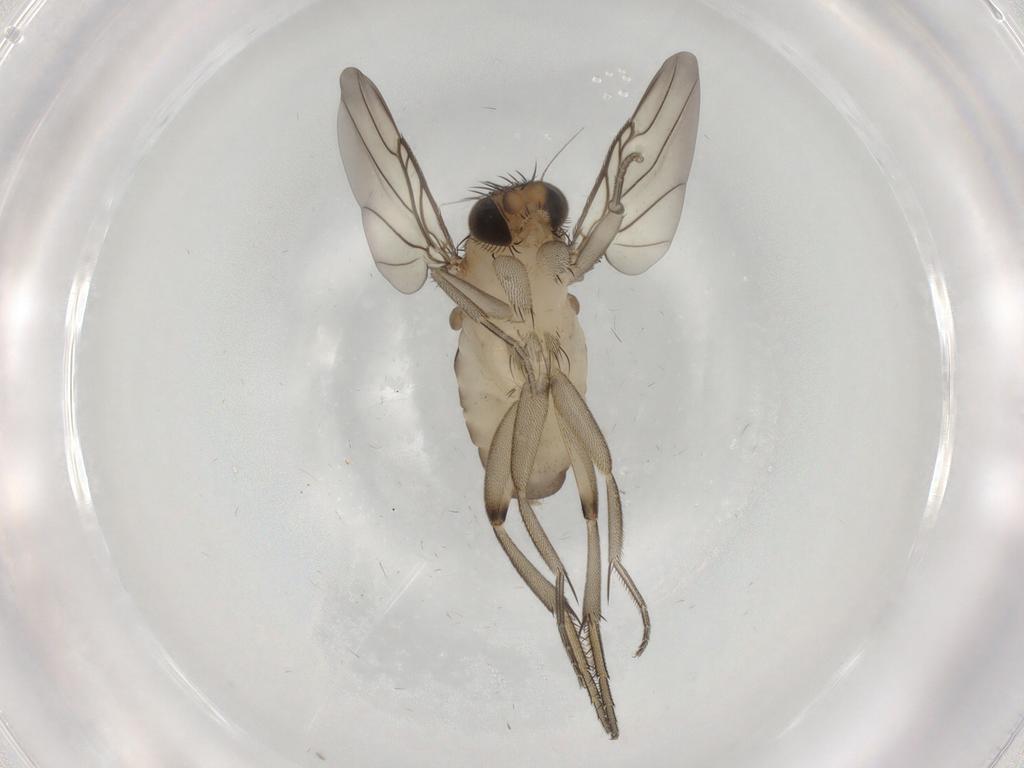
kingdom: Animalia
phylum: Arthropoda
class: Insecta
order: Diptera
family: Phoridae
